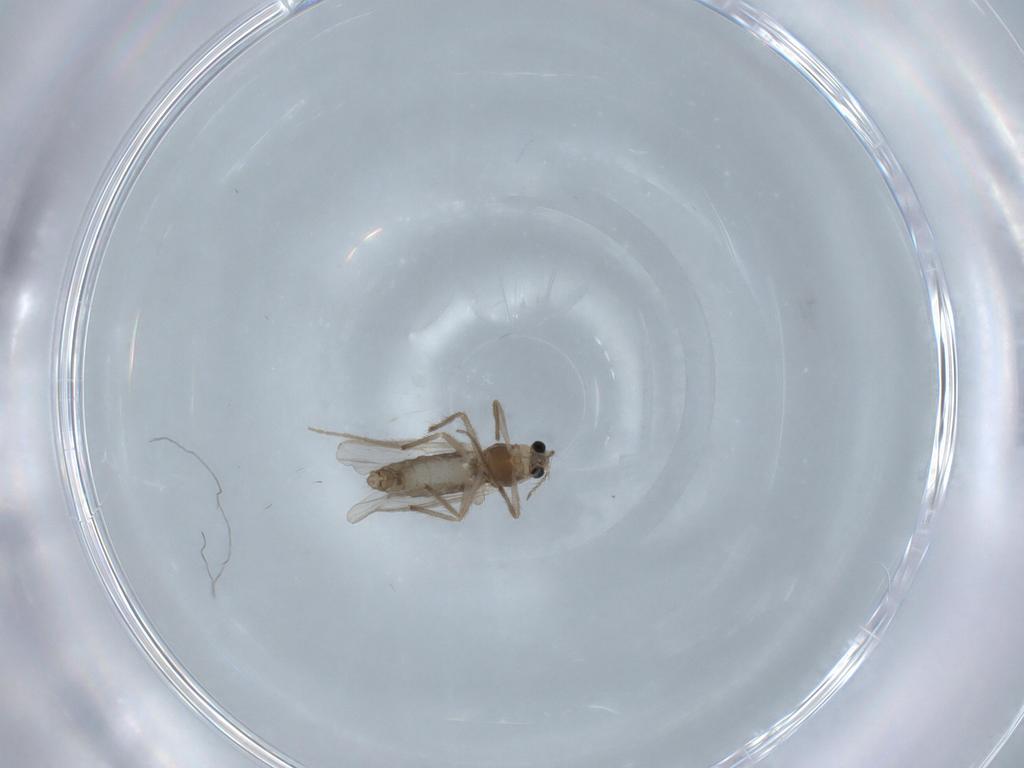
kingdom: Animalia
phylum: Arthropoda
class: Insecta
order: Diptera
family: Chironomidae
